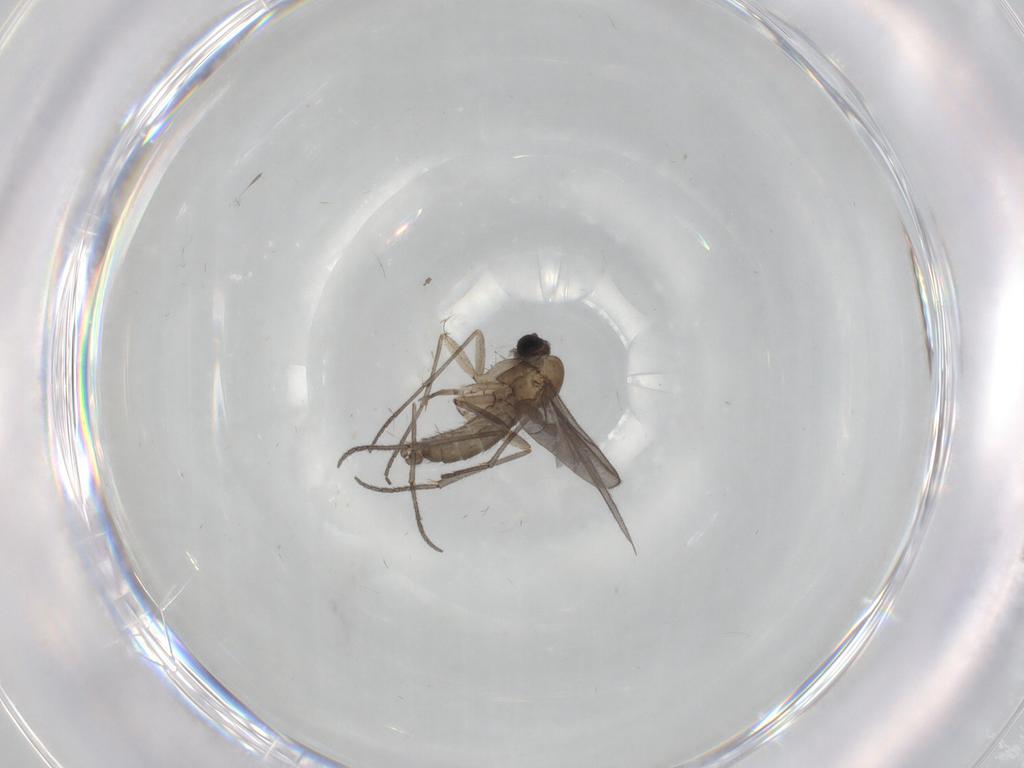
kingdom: Animalia
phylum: Arthropoda
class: Insecta
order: Diptera
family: Sciaridae
